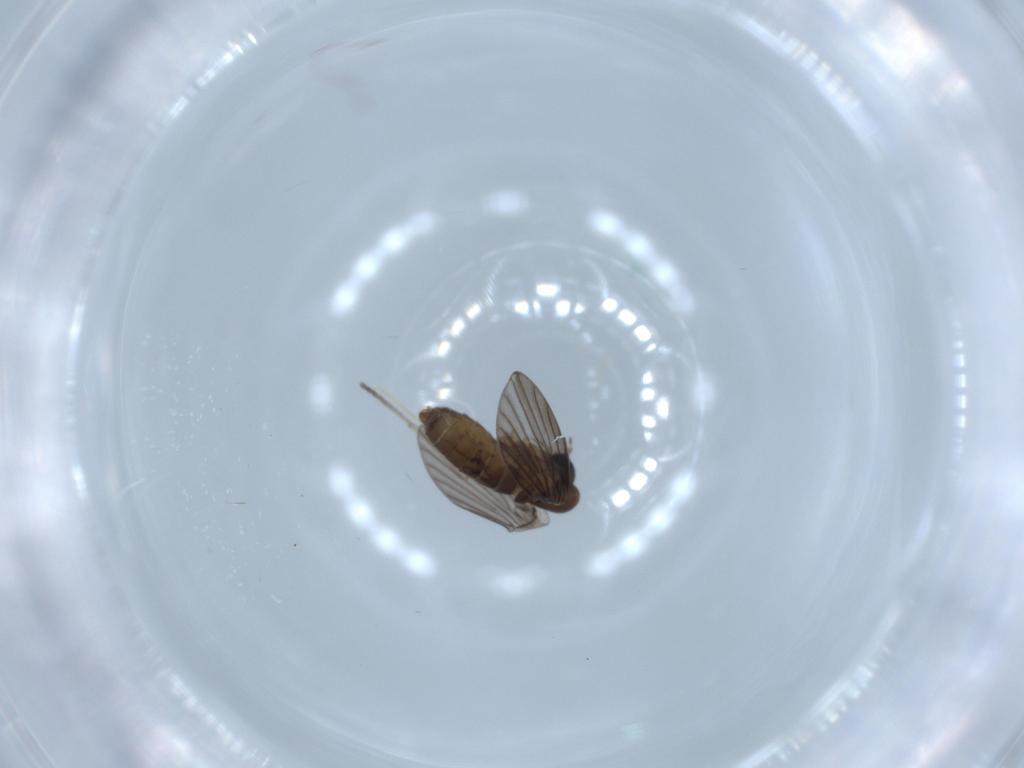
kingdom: Animalia
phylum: Arthropoda
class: Insecta
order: Diptera
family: Psychodidae
